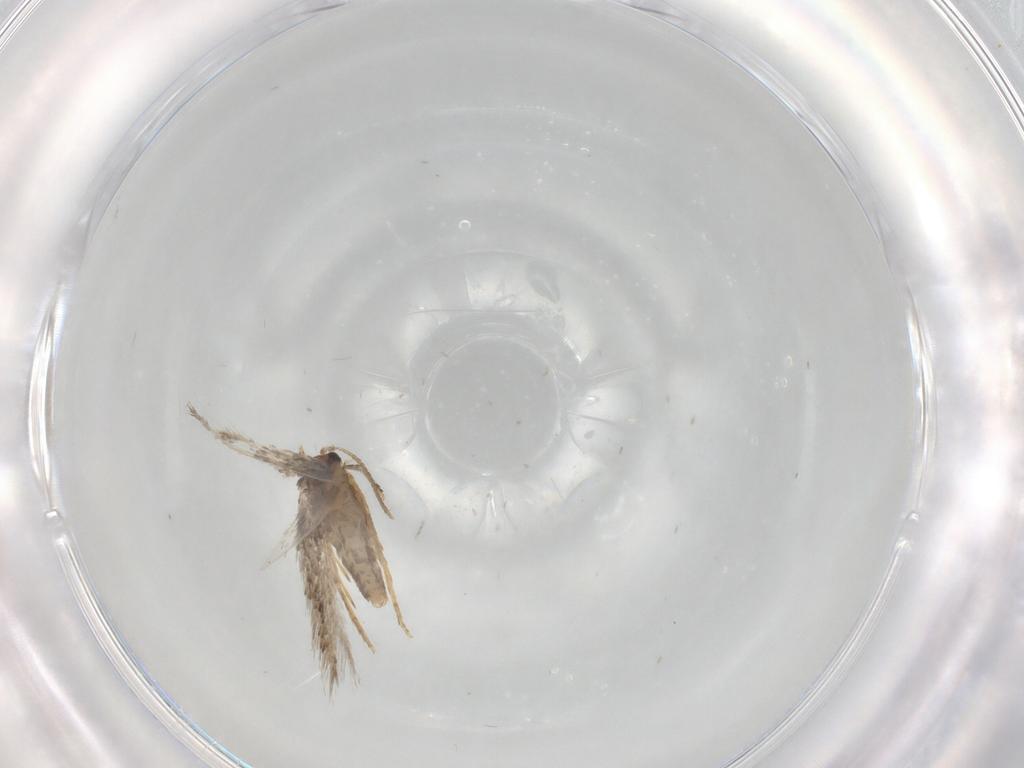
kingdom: Animalia
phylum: Arthropoda
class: Insecta
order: Lepidoptera
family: Nepticulidae
